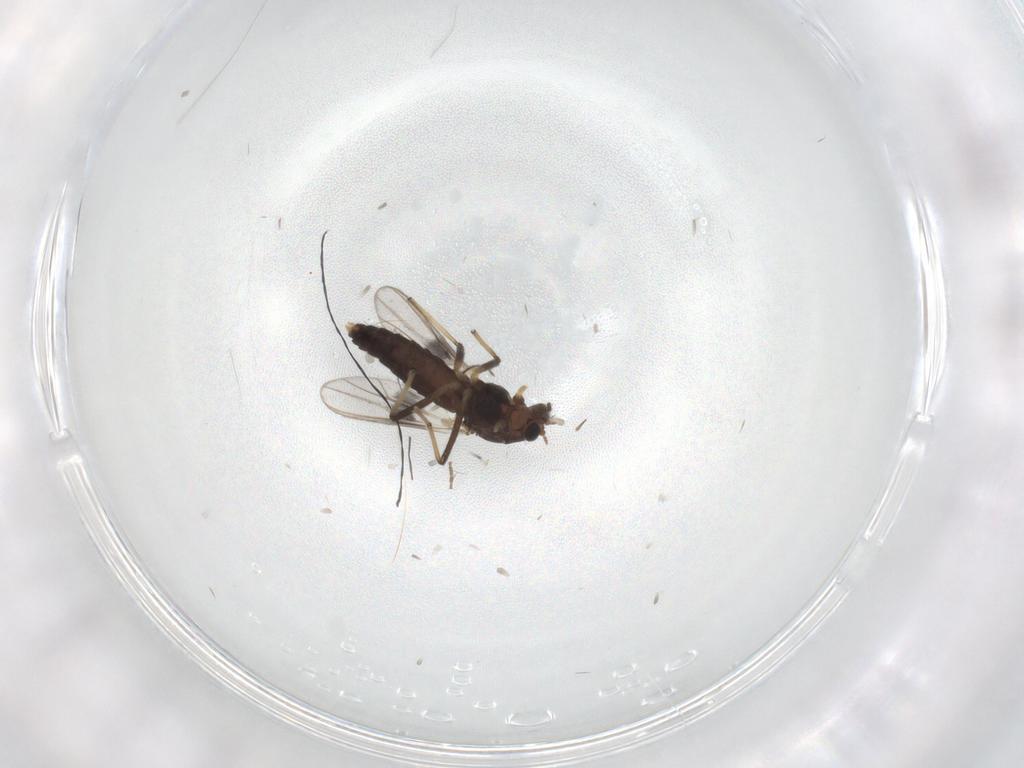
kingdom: Animalia
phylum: Arthropoda
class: Insecta
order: Diptera
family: Chironomidae
